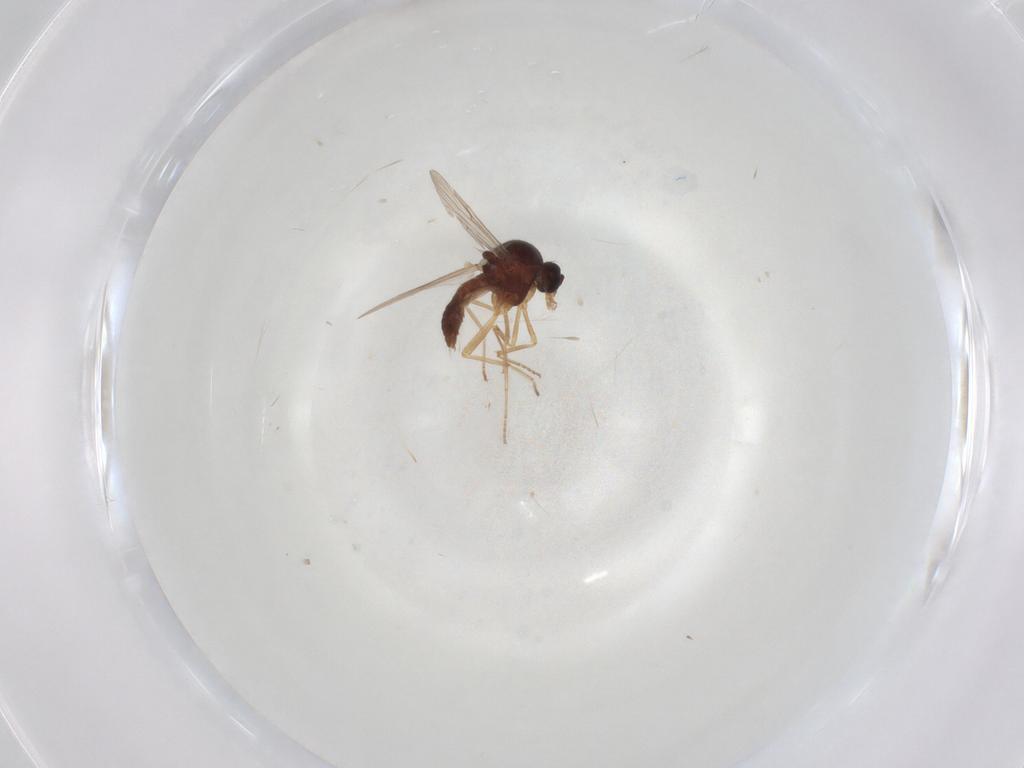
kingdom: Animalia
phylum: Arthropoda
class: Insecta
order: Diptera
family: Ceratopogonidae
